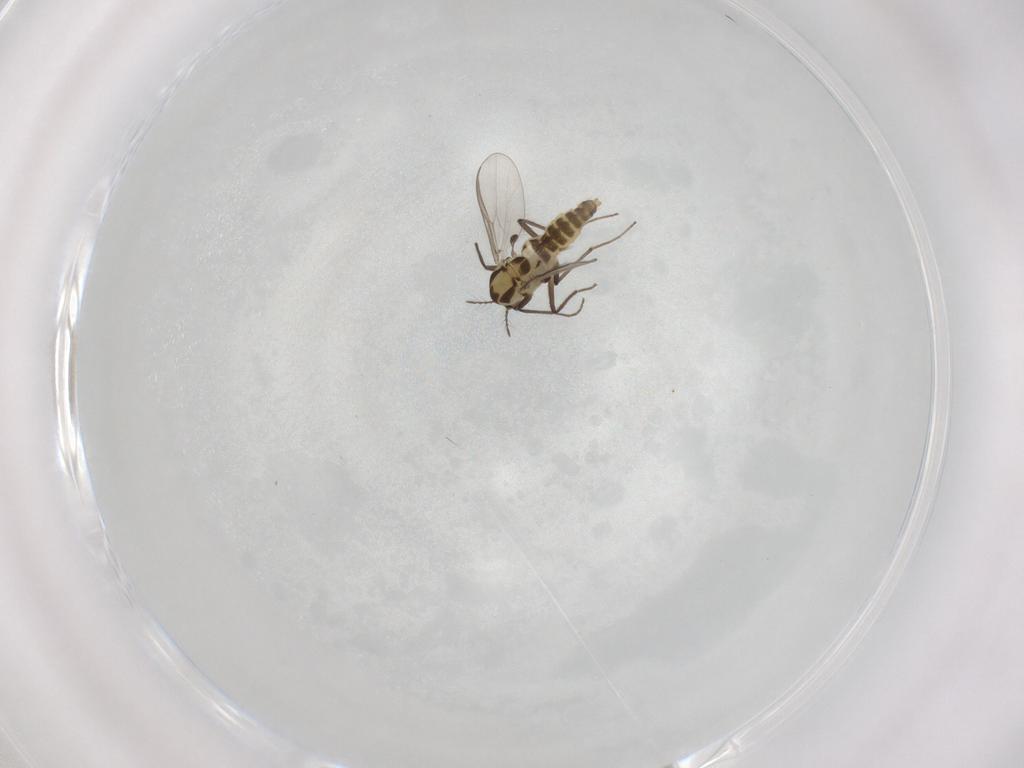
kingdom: Animalia
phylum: Arthropoda
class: Insecta
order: Diptera
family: Chironomidae
